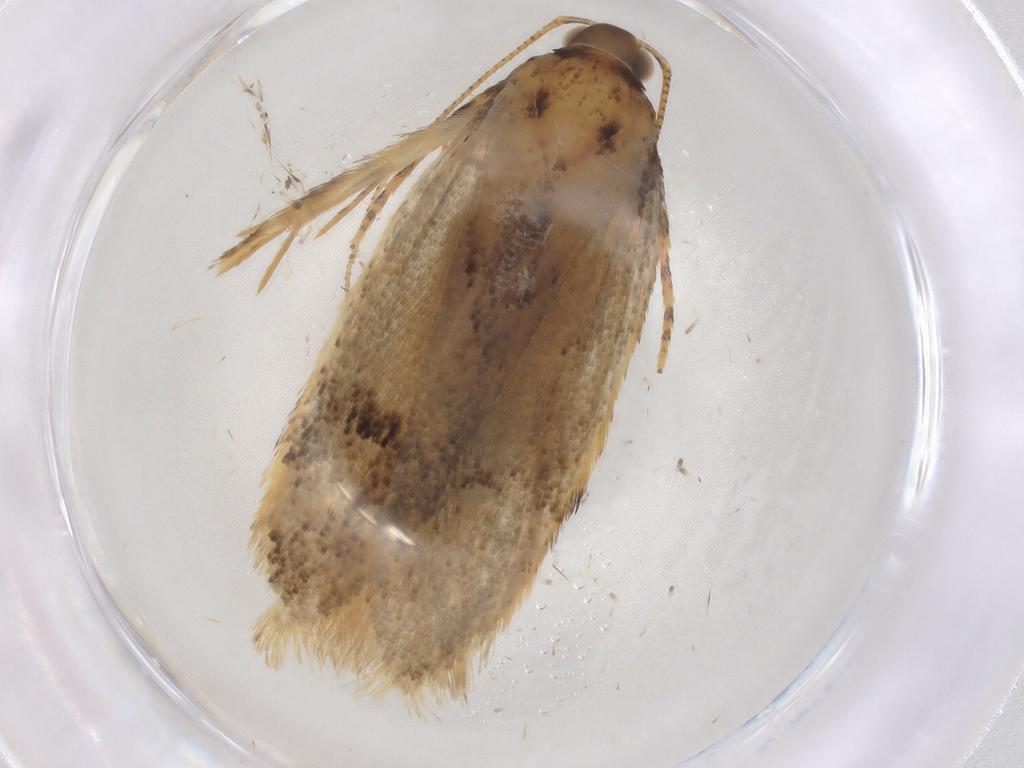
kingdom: Animalia
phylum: Arthropoda
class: Insecta
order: Lepidoptera
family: Gelechiidae
